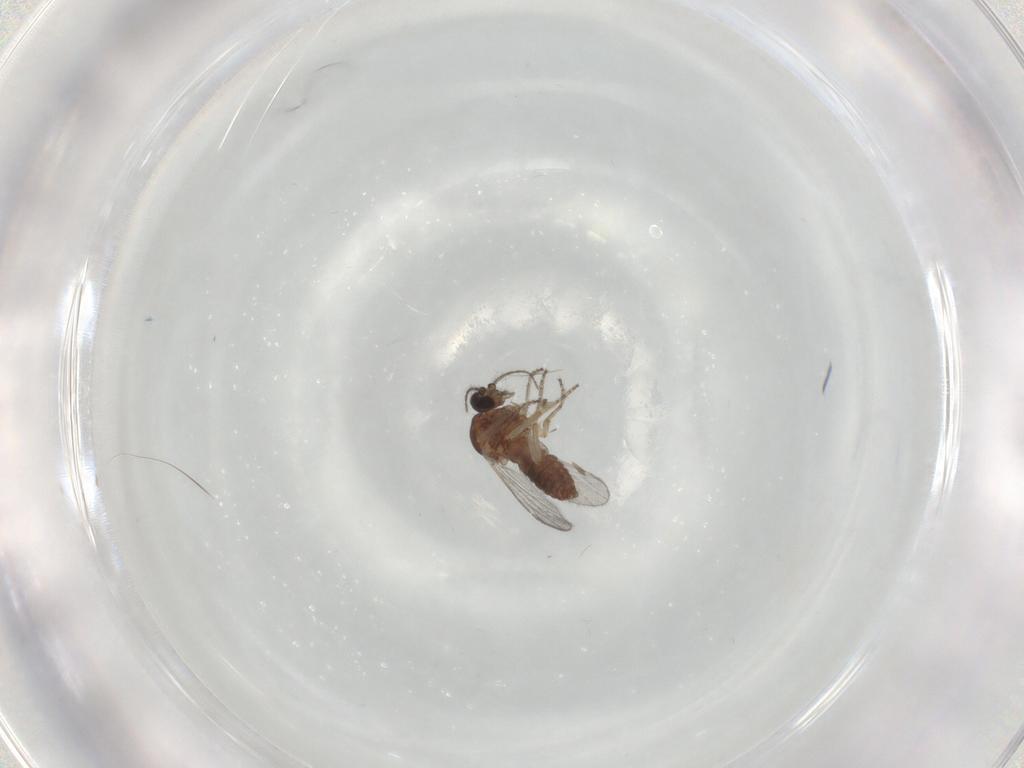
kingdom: Animalia
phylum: Arthropoda
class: Insecta
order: Diptera
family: Ceratopogonidae
